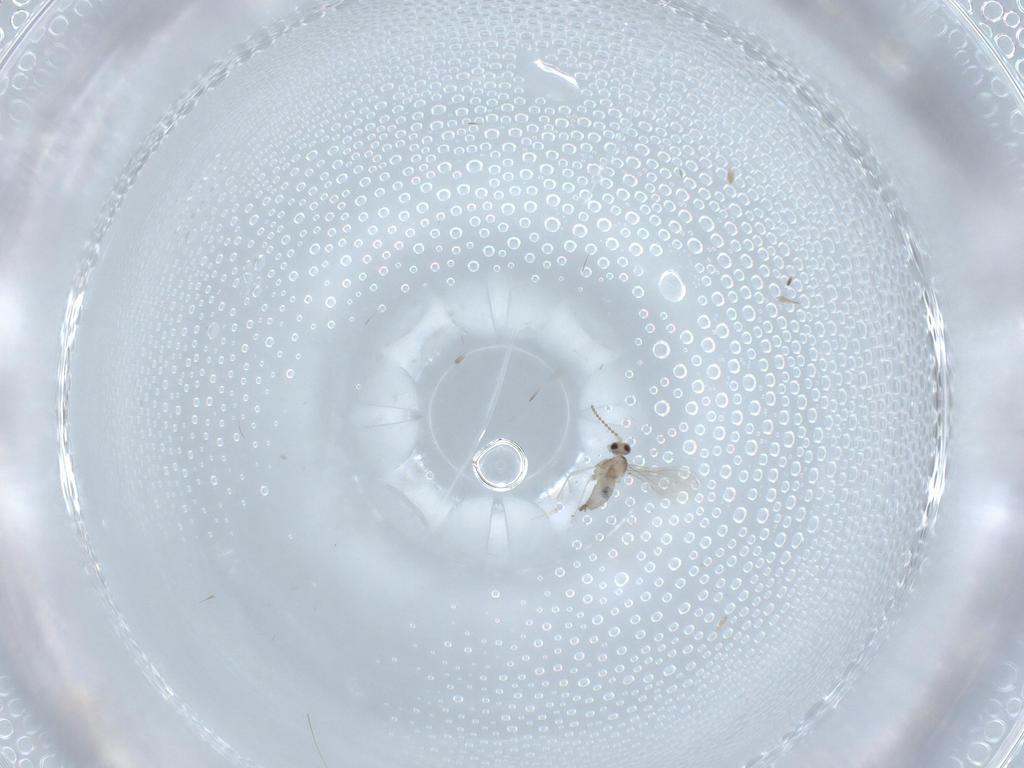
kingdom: Animalia
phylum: Arthropoda
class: Insecta
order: Diptera
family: Cecidomyiidae
